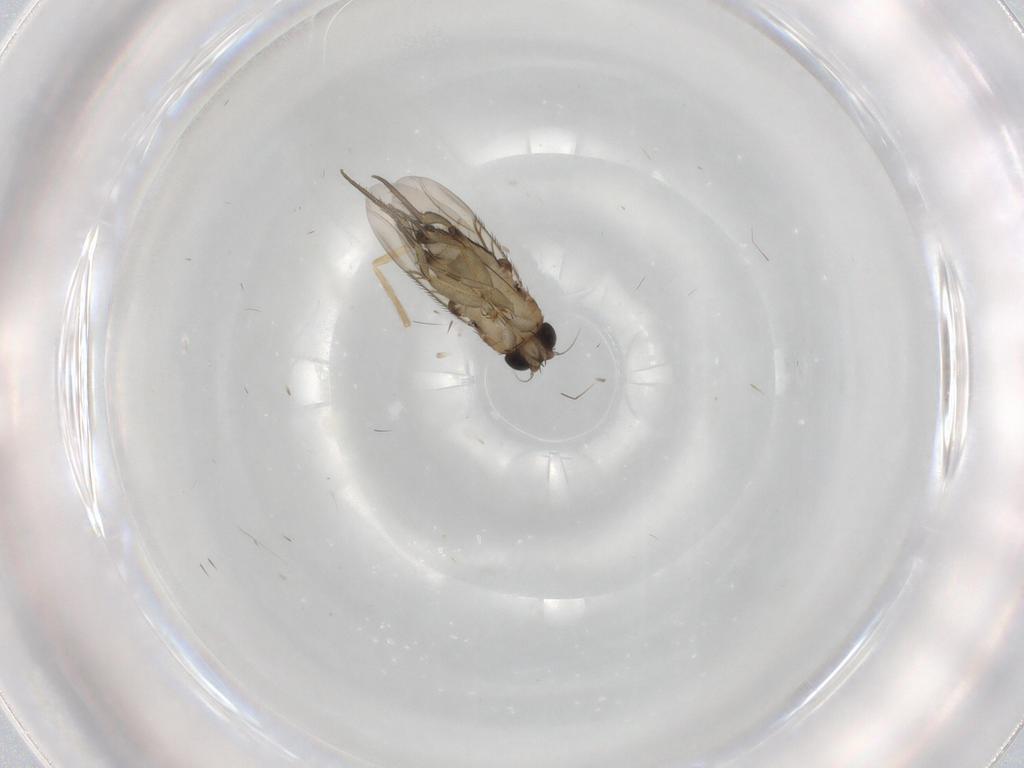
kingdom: Animalia
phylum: Arthropoda
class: Insecta
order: Diptera
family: Phoridae
